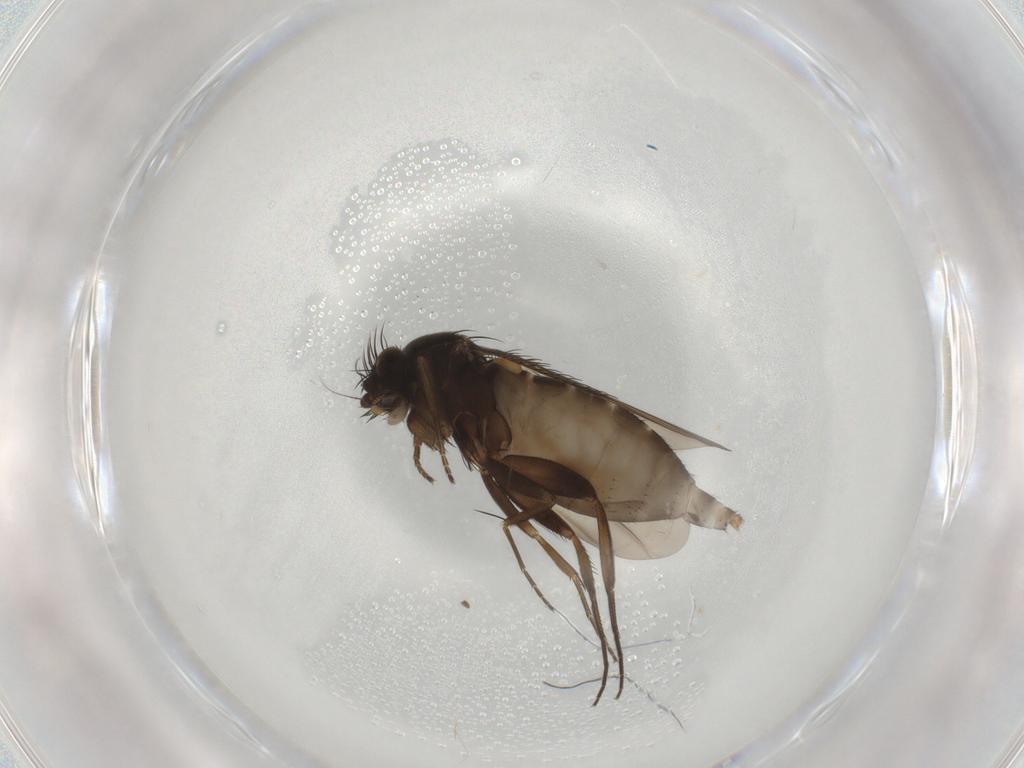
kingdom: Animalia
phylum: Arthropoda
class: Insecta
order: Diptera
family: Phoridae
